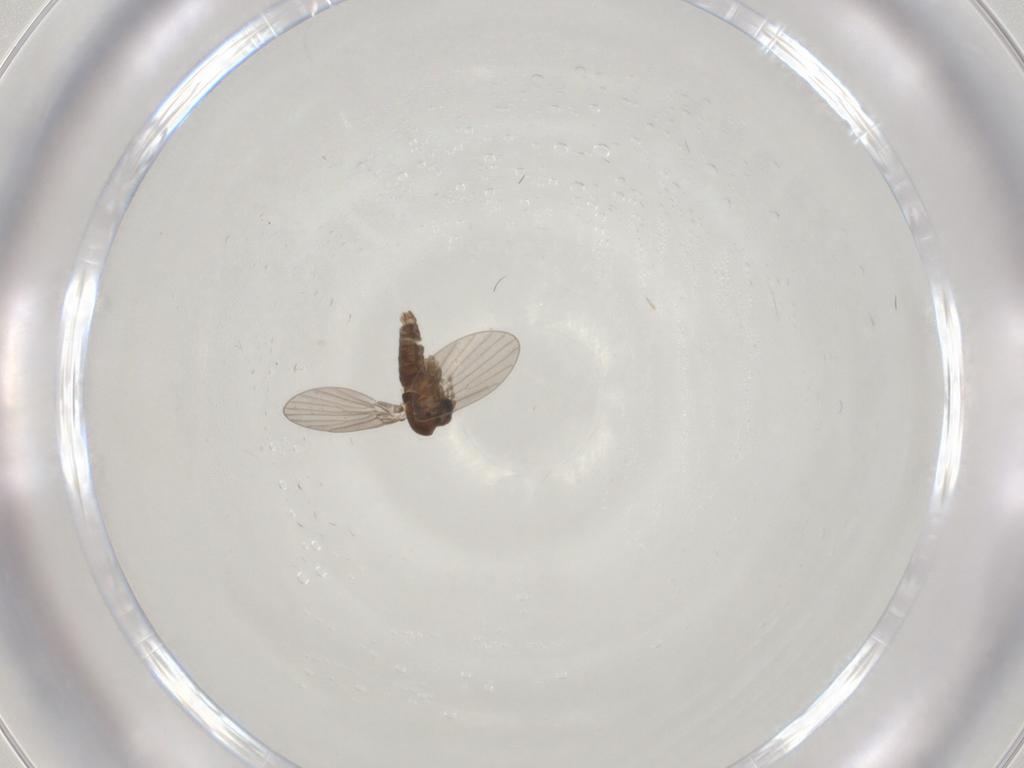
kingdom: Animalia
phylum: Arthropoda
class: Insecta
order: Diptera
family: Psychodidae
